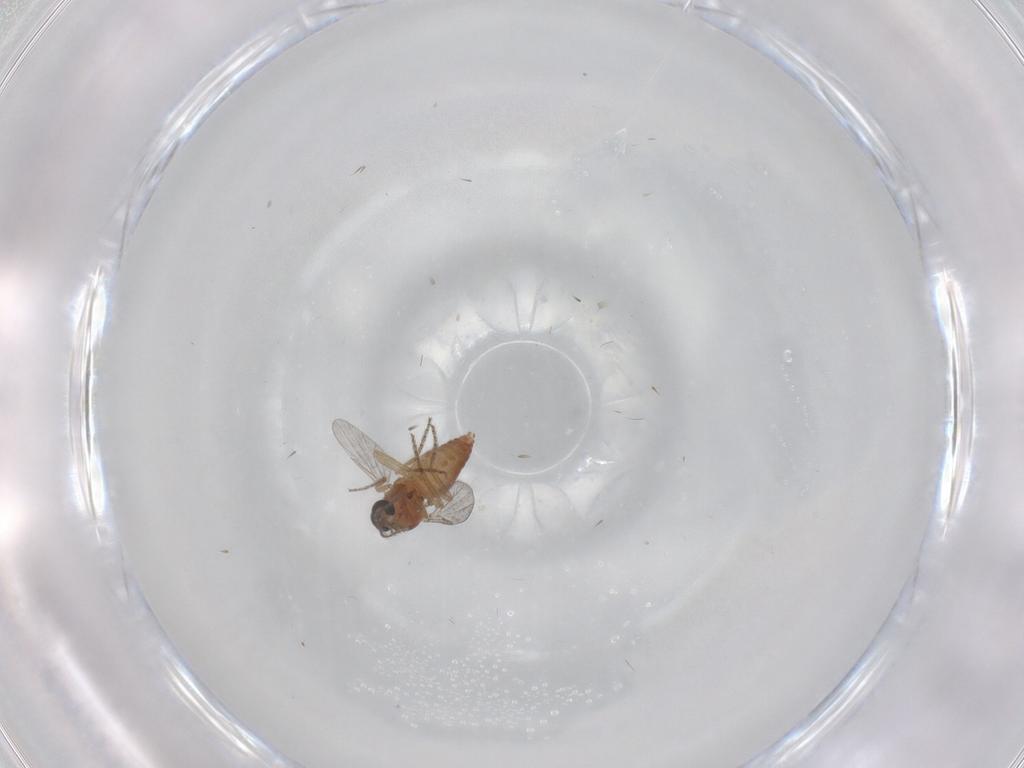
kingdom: Animalia
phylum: Arthropoda
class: Insecta
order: Diptera
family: Ceratopogonidae
